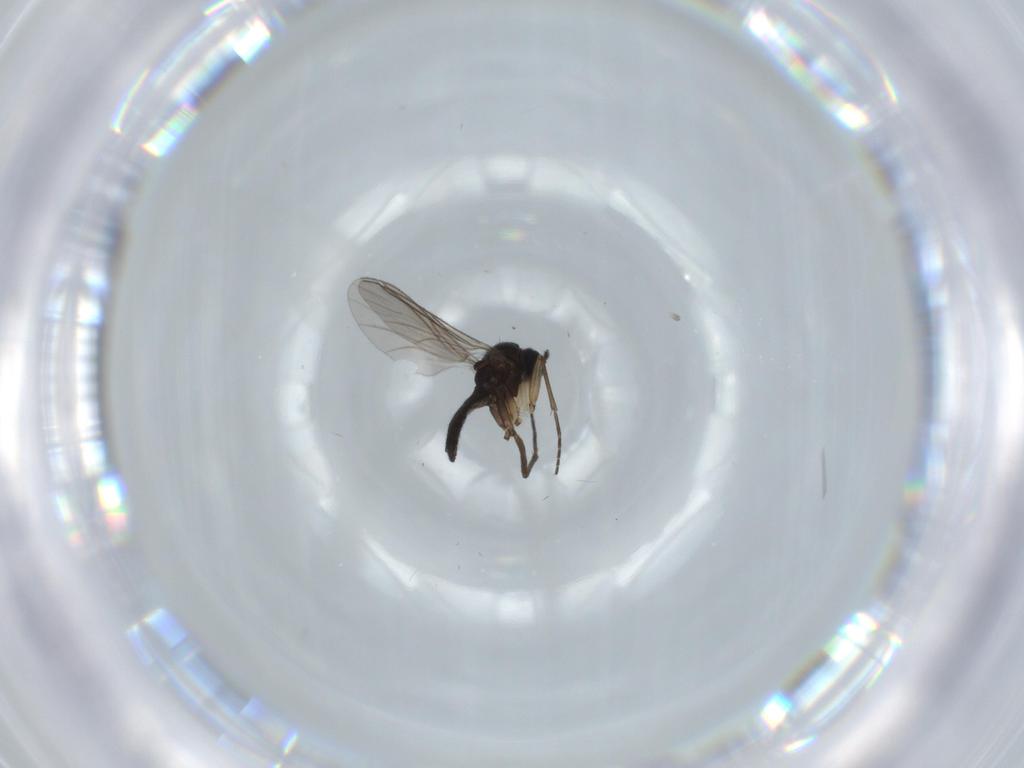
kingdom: Animalia
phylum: Arthropoda
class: Insecta
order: Diptera
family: Sciaridae
